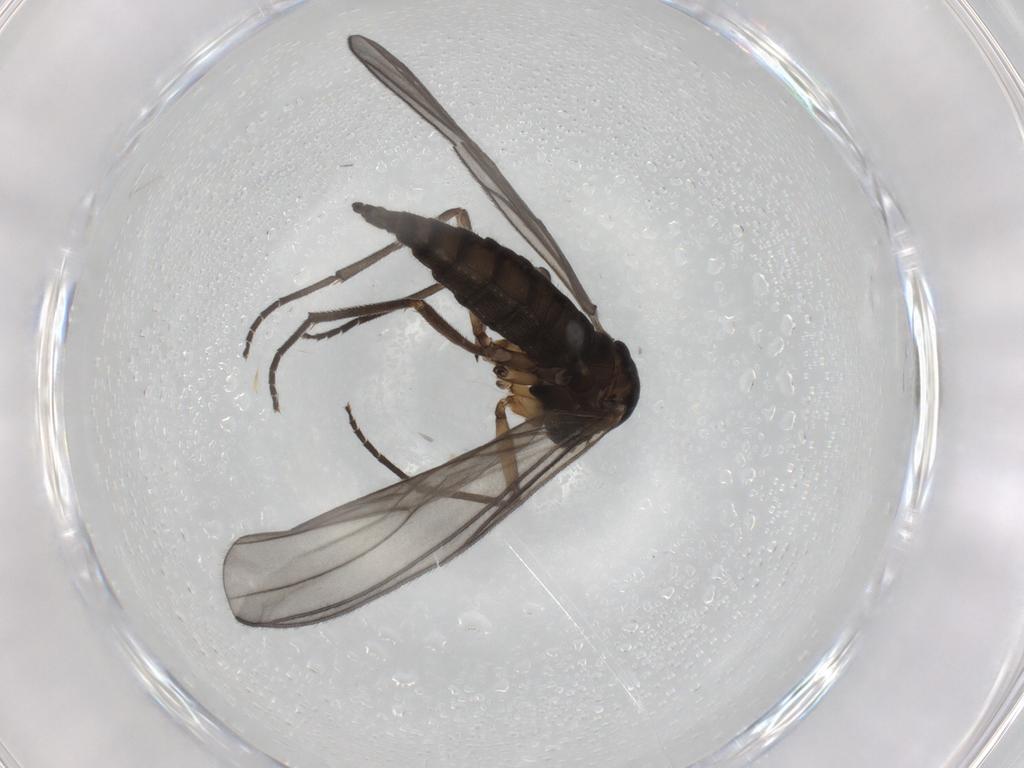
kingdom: Animalia
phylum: Arthropoda
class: Insecta
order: Diptera
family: Sciaridae
